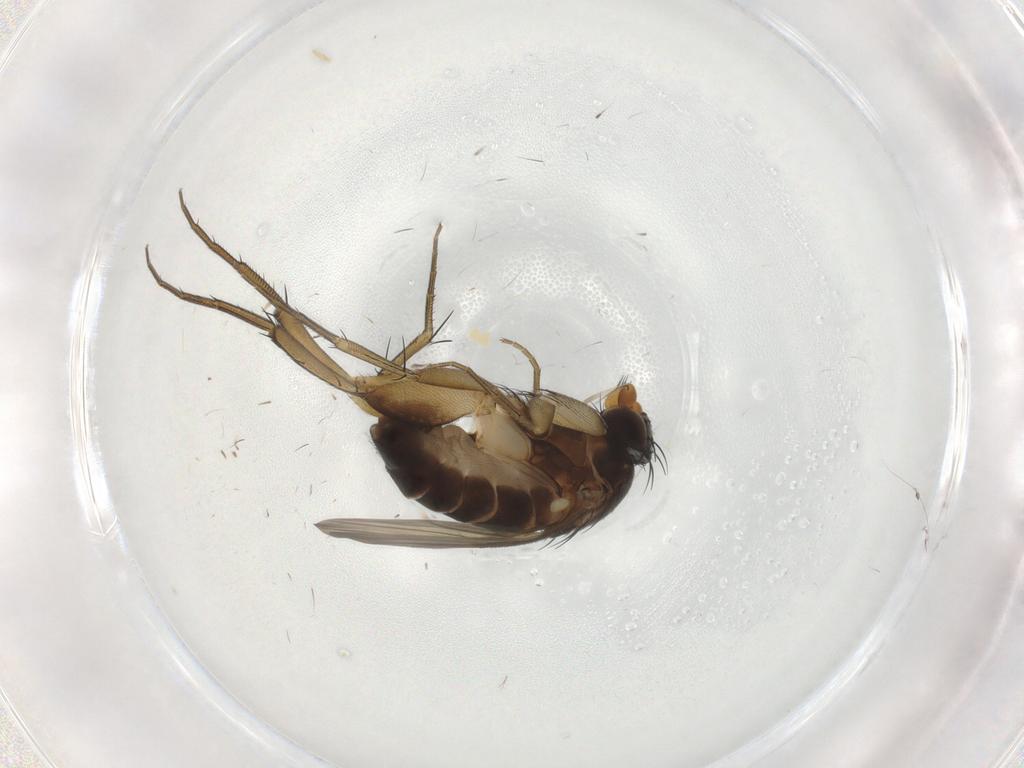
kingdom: Animalia
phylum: Arthropoda
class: Insecta
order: Diptera
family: Phoridae
